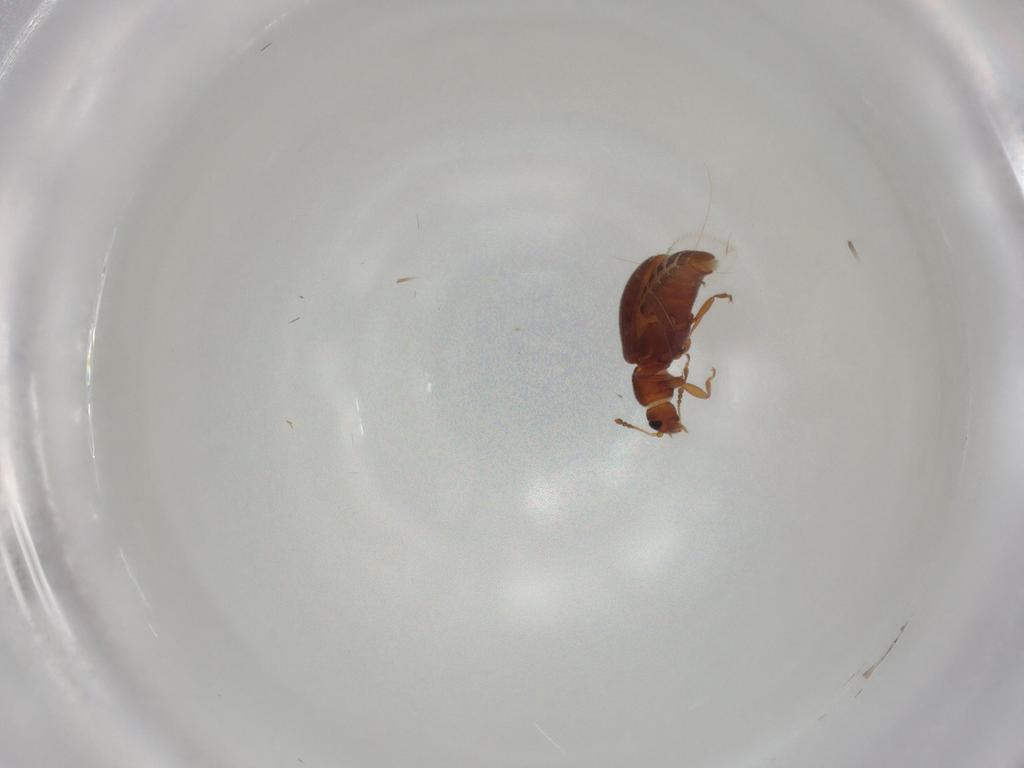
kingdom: Animalia
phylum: Arthropoda
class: Insecta
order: Coleoptera
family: Latridiidae
